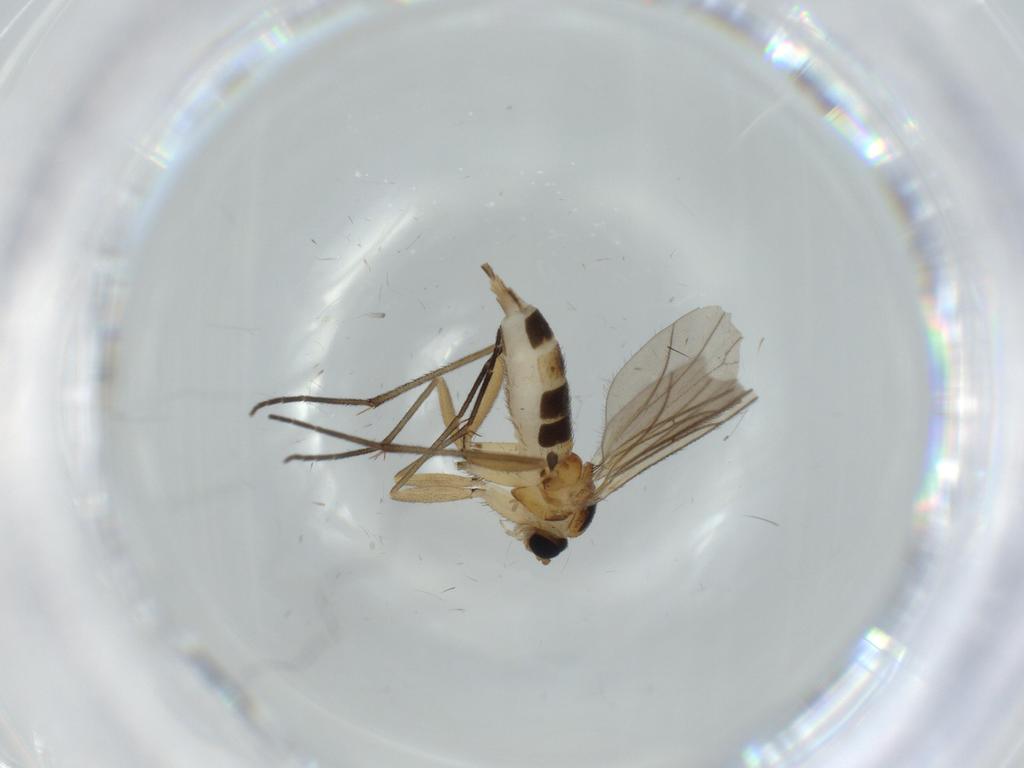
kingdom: Animalia
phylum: Arthropoda
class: Insecta
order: Diptera
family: Sciaridae
